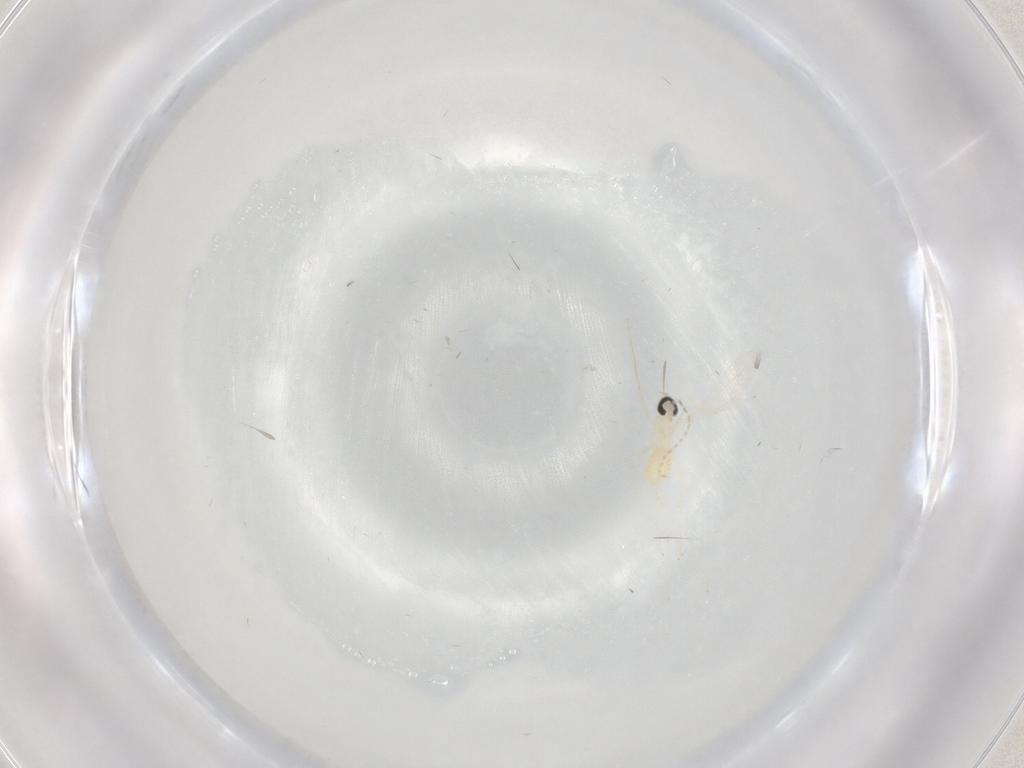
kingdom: Animalia
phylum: Arthropoda
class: Insecta
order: Diptera
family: Cecidomyiidae
